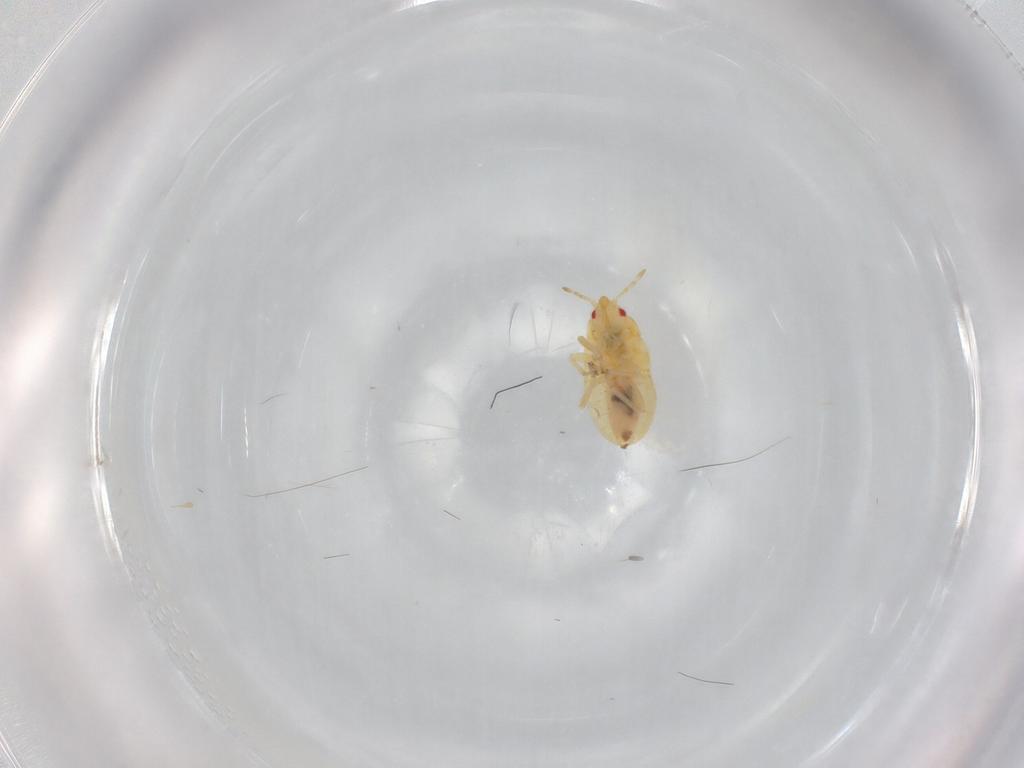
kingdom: Animalia
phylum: Arthropoda
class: Insecta
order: Hemiptera
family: Anthocoridae
